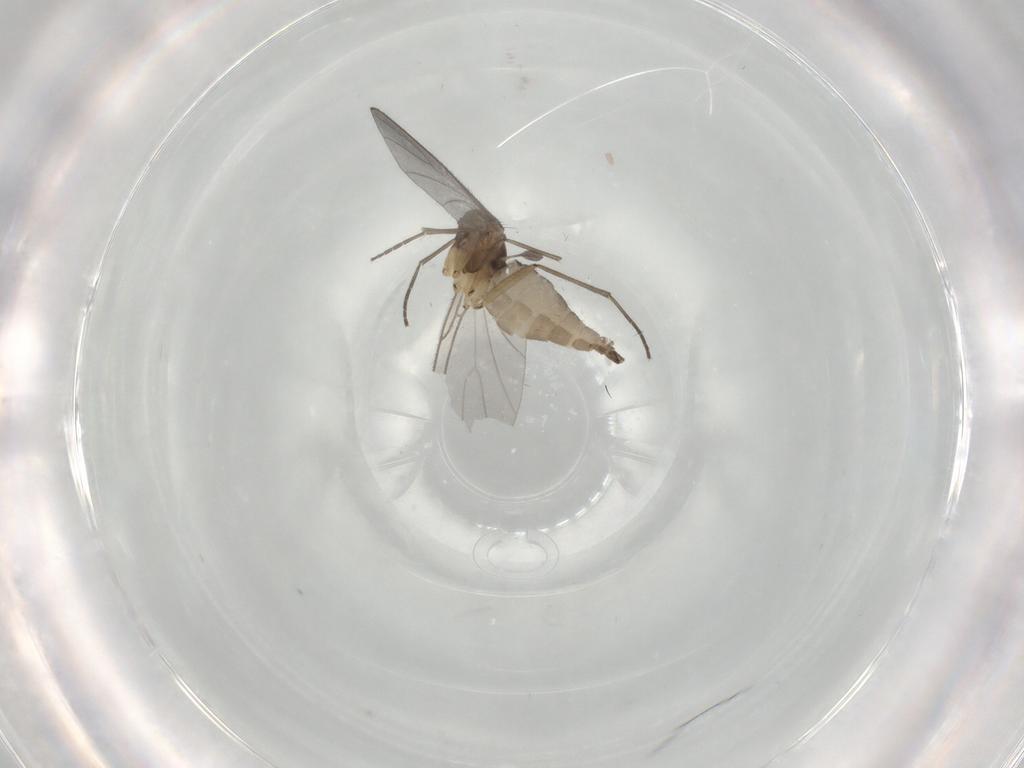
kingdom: Animalia
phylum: Arthropoda
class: Insecta
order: Diptera
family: Sciaridae
